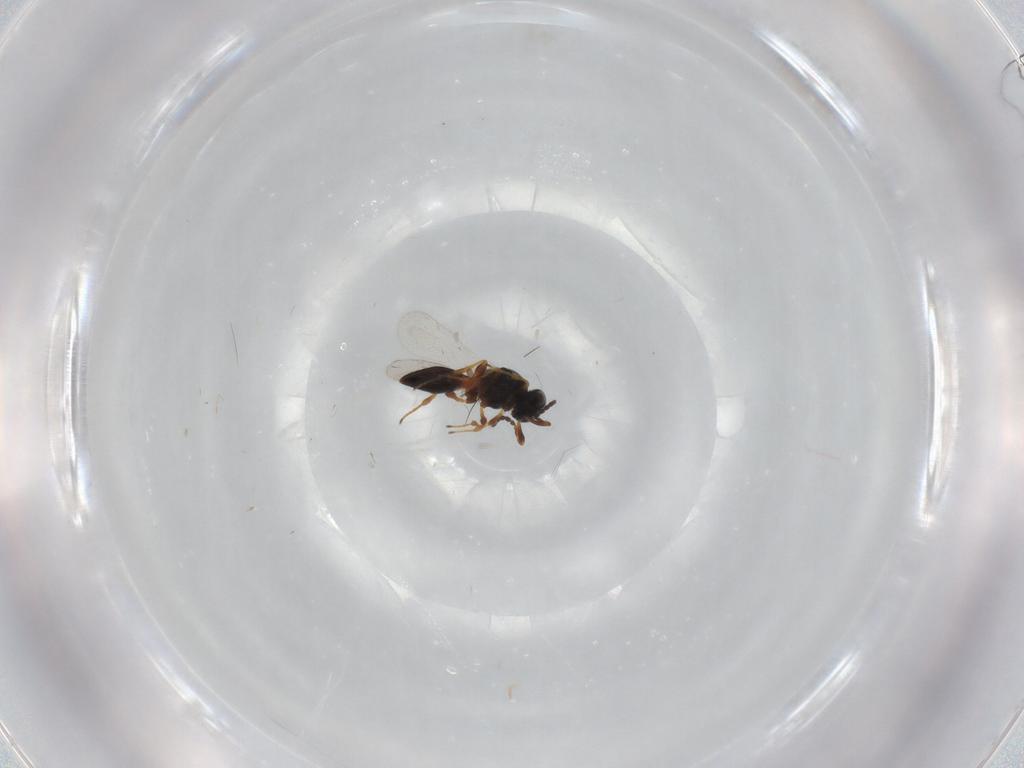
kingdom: Animalia
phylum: Arthropoda
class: Insecta
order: Hymenoptera
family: Platygastridae
